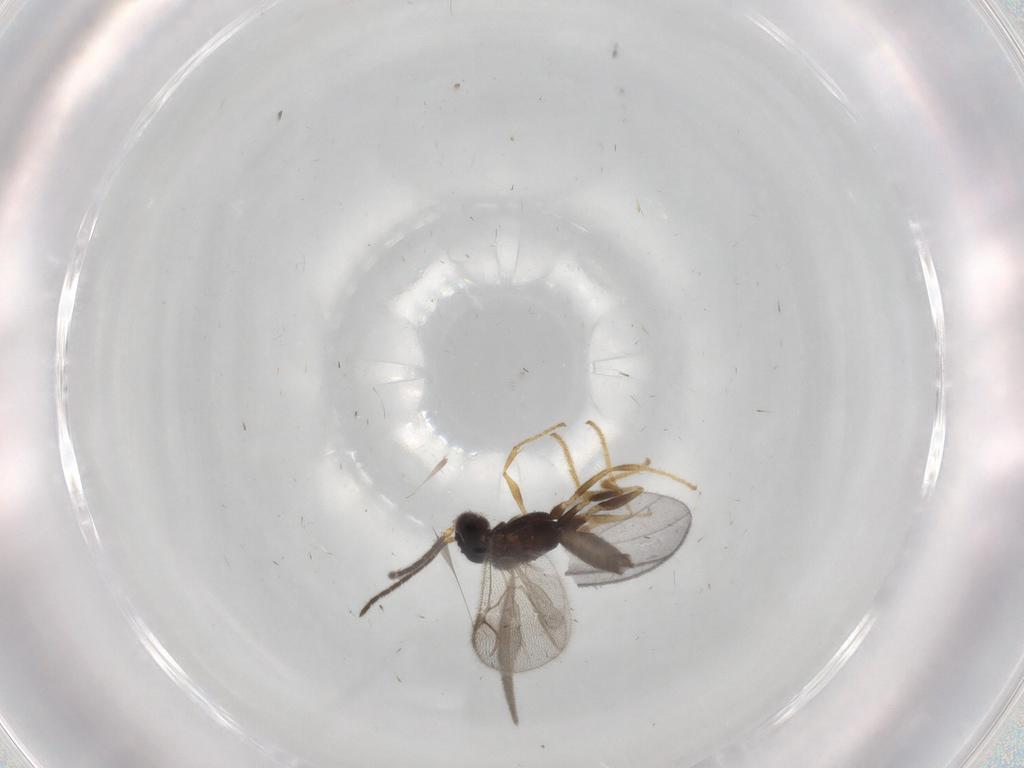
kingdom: Animalia
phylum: Arthropoda
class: Insecta
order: Hymenoptera
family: Dryinidae
